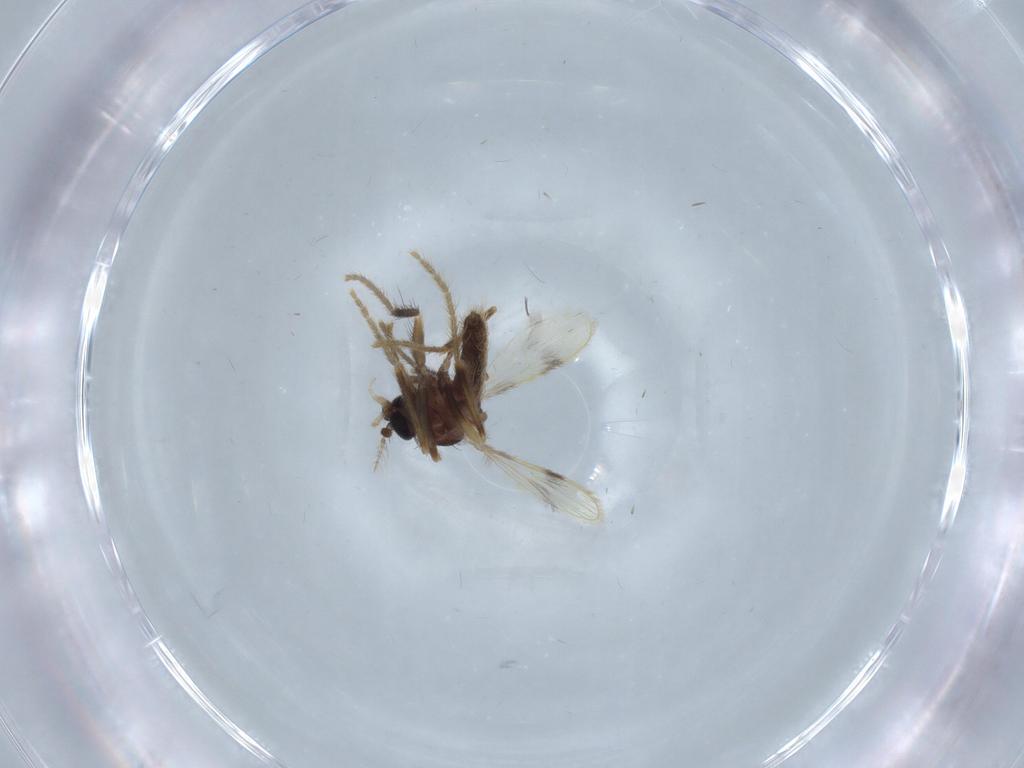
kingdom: Animalia
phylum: Arthropoda
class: Insecta
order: Diptera
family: Corethrellidae
